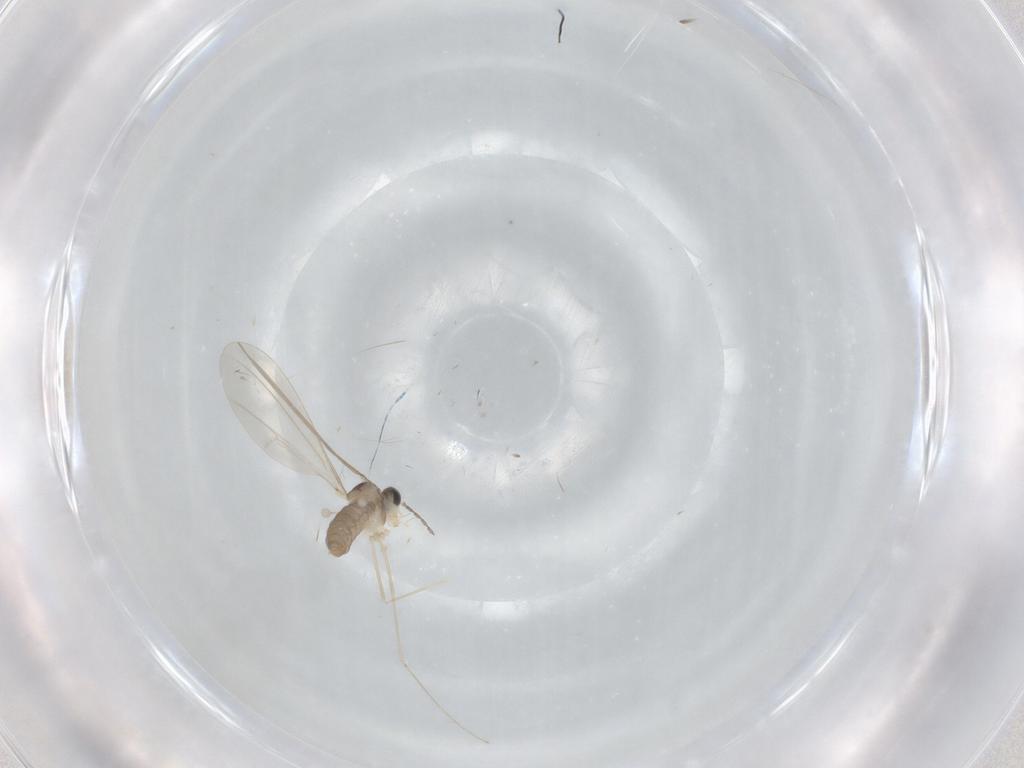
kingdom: Animalia
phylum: Arthropoda
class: Insecta
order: Diptera
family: Cecidomyiidae
